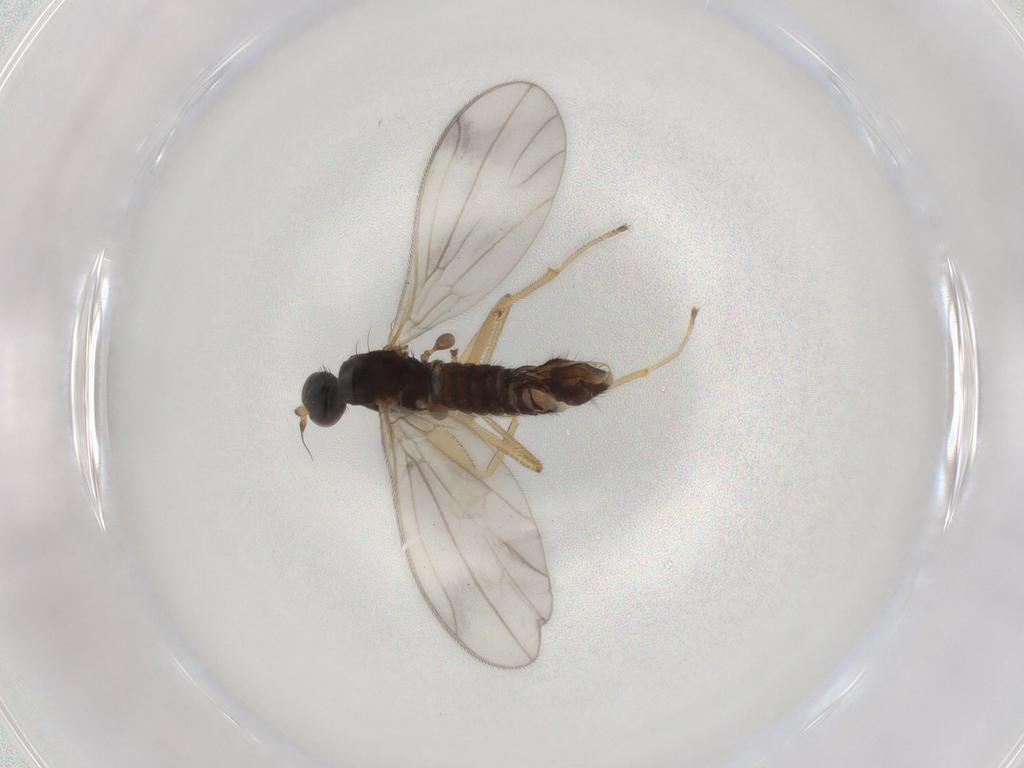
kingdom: Animalia
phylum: Arthropoda
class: Insecta
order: Diptera
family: Empididae
